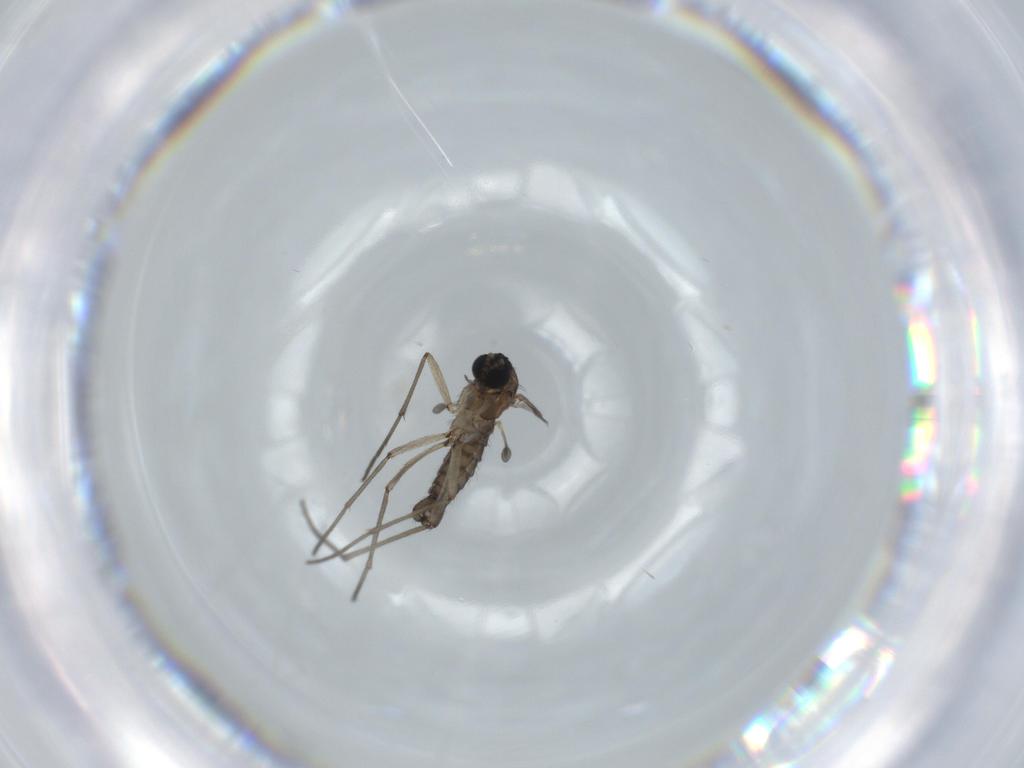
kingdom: Animalia
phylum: Arthropoda
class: Insecta
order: Diptera
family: Sciaridae
